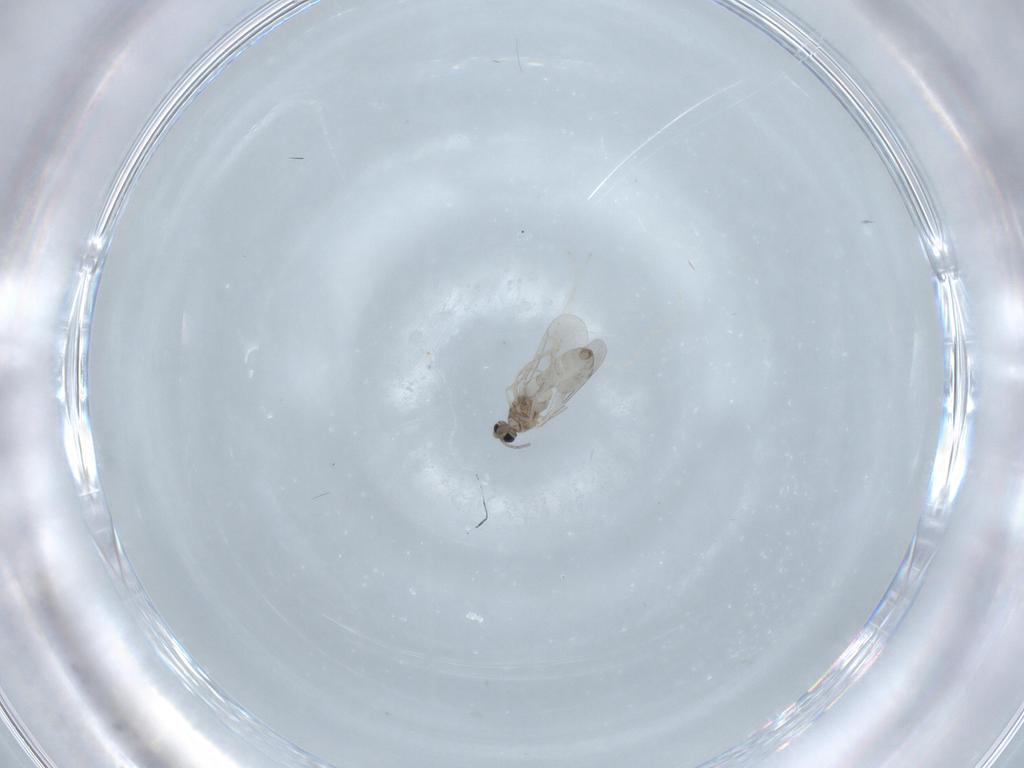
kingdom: Animalia
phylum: Arthropoda
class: Insecta
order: Diptera
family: Cecidomyiidae
